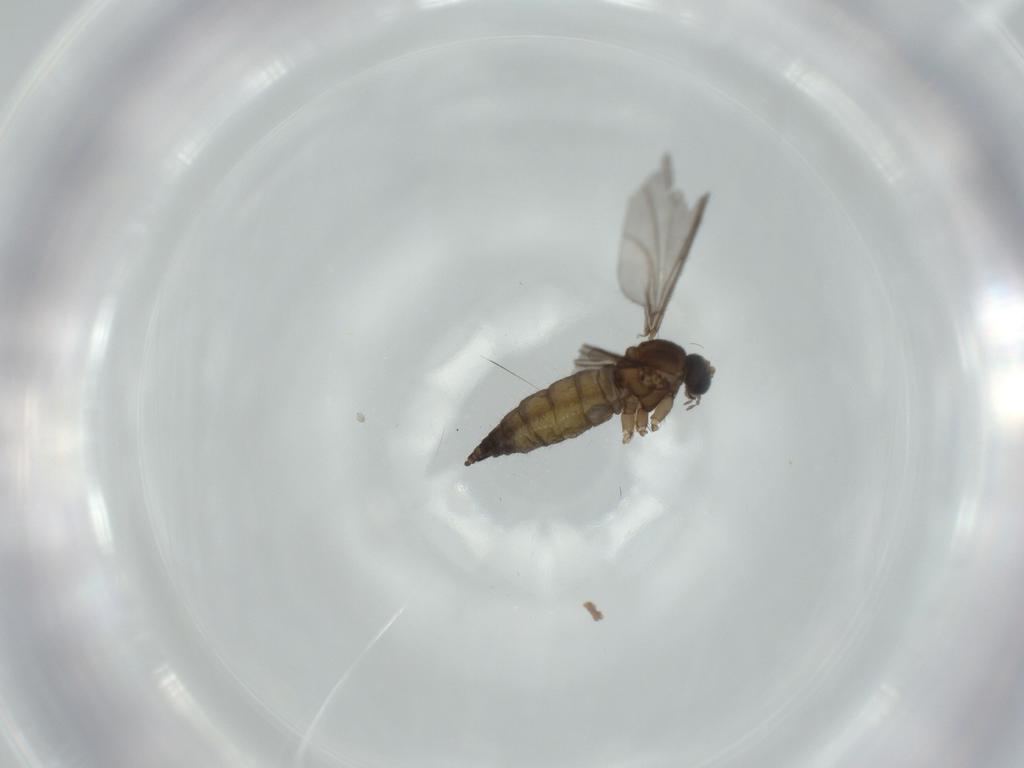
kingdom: Animalia
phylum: Arthropoda
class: Insecta
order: Diptera
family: Sciaridae
